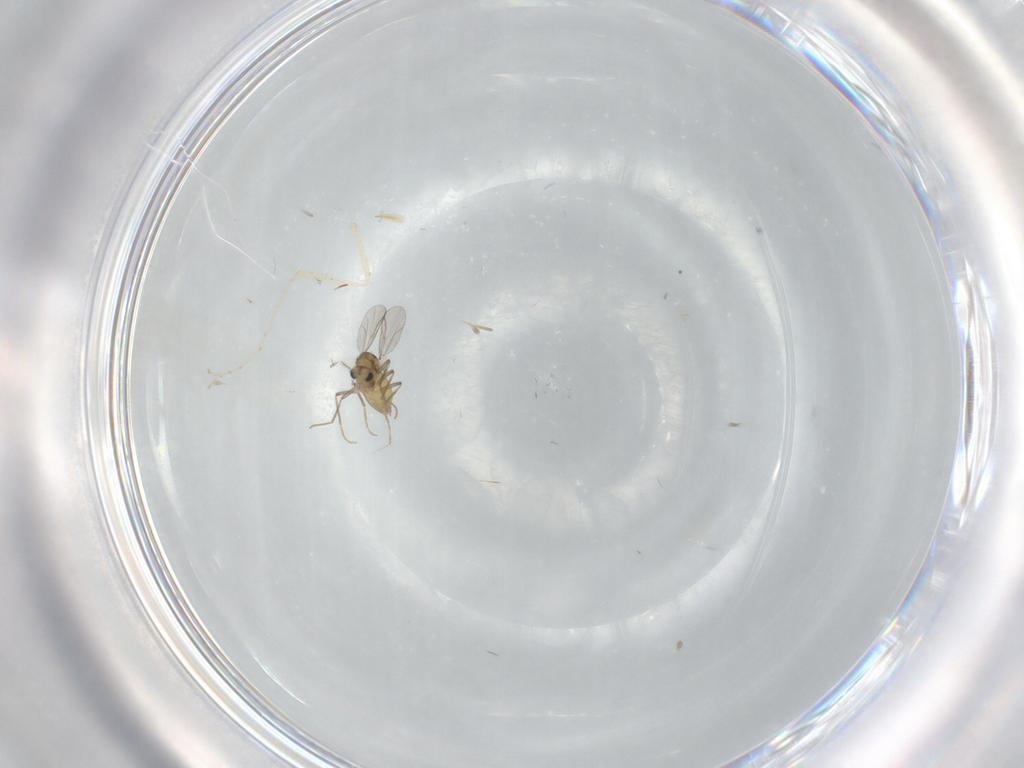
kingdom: Animalia
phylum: Arthropoda
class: Insecta
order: Diptera
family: Chironomidae
